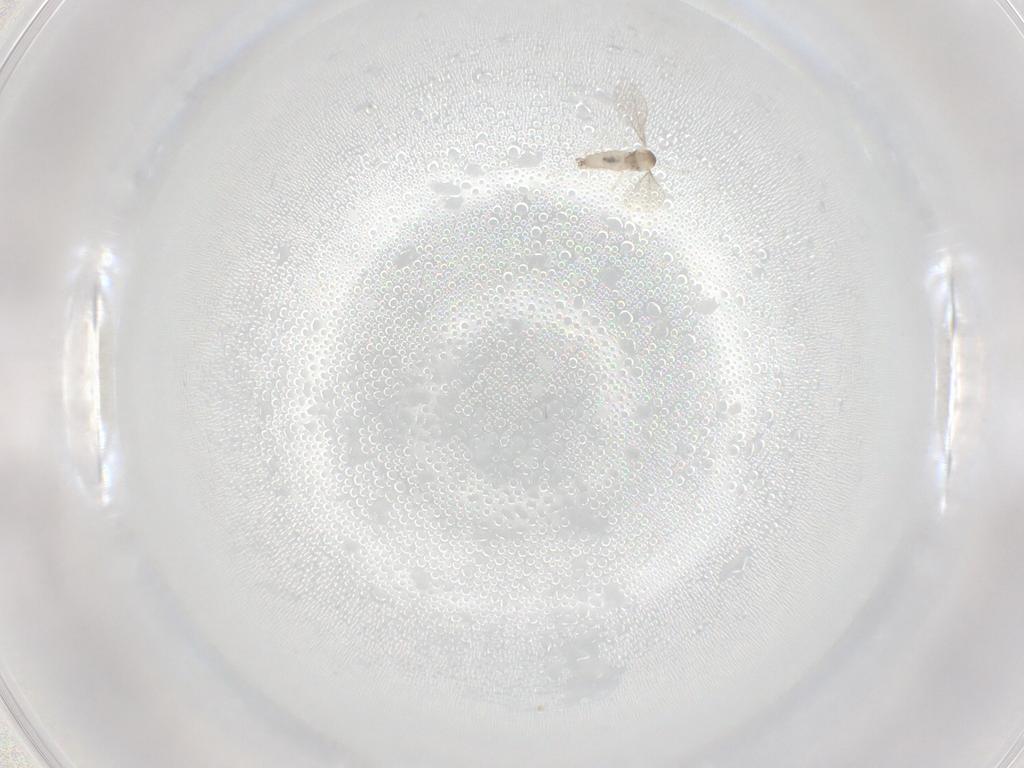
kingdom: Animalia
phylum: Arthropoda
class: Insecta
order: Diptera
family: Phoridae
